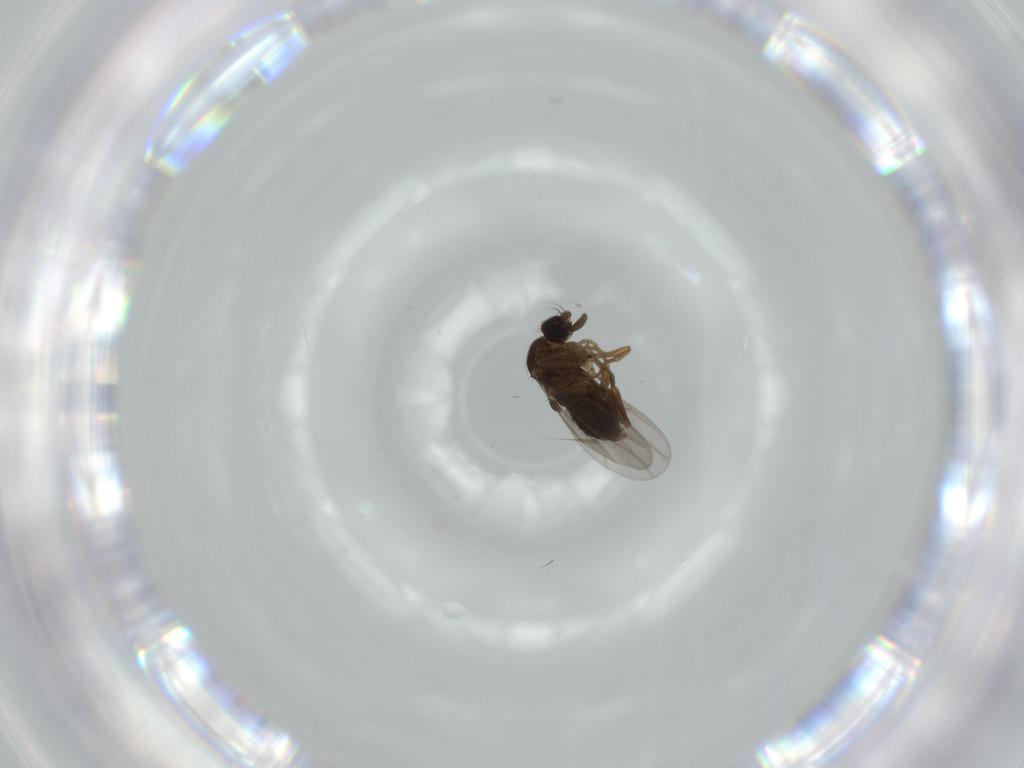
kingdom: Animalia
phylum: Arthropoda
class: Insecta
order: Diptera
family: Phoridae
